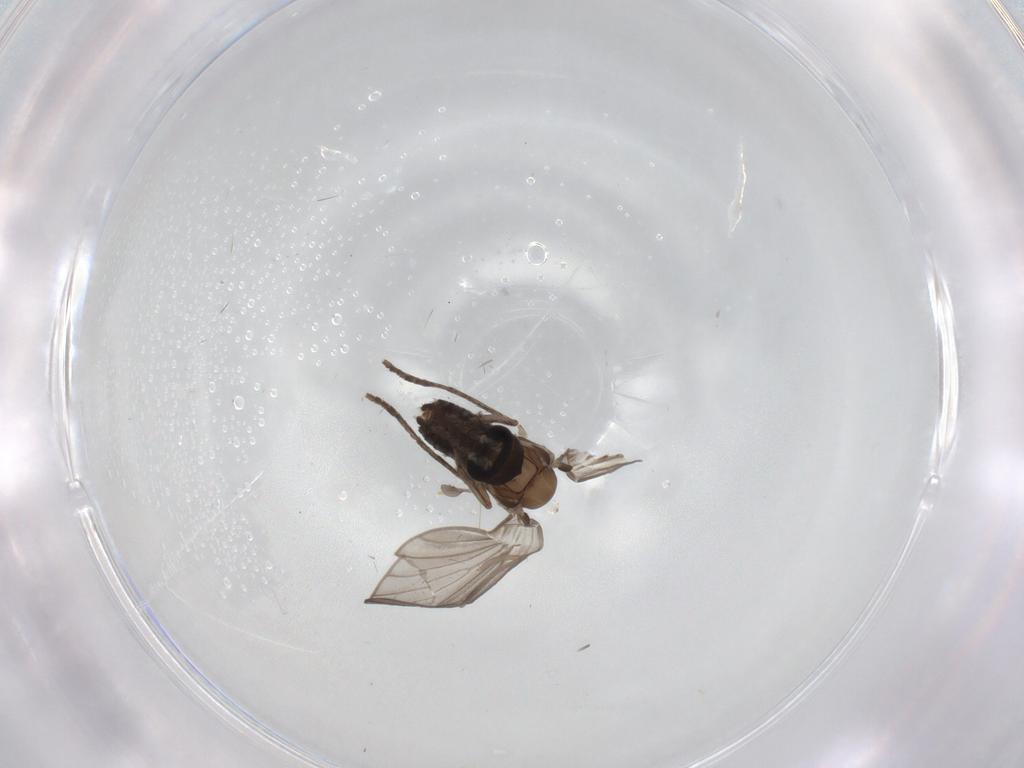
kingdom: Animalia
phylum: Arthropoda
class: Insecta
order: Diptera
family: Psychodidae
